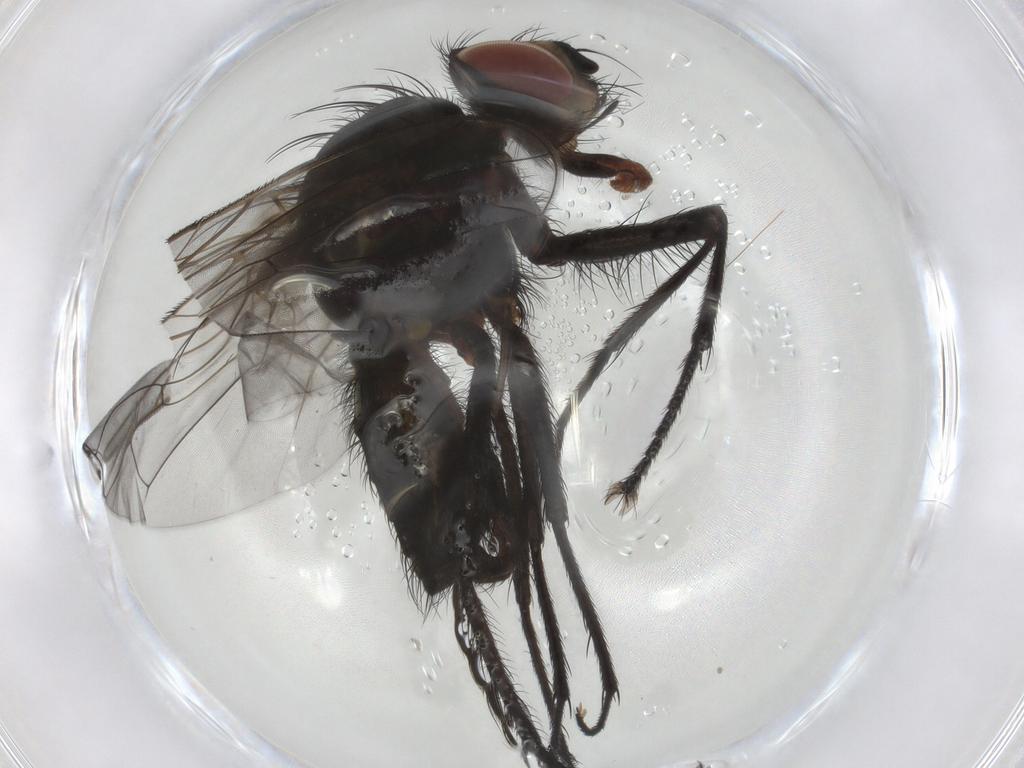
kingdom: Animalia
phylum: Arthropoda
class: Insecta
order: Diptera
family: Anthomyiidae
